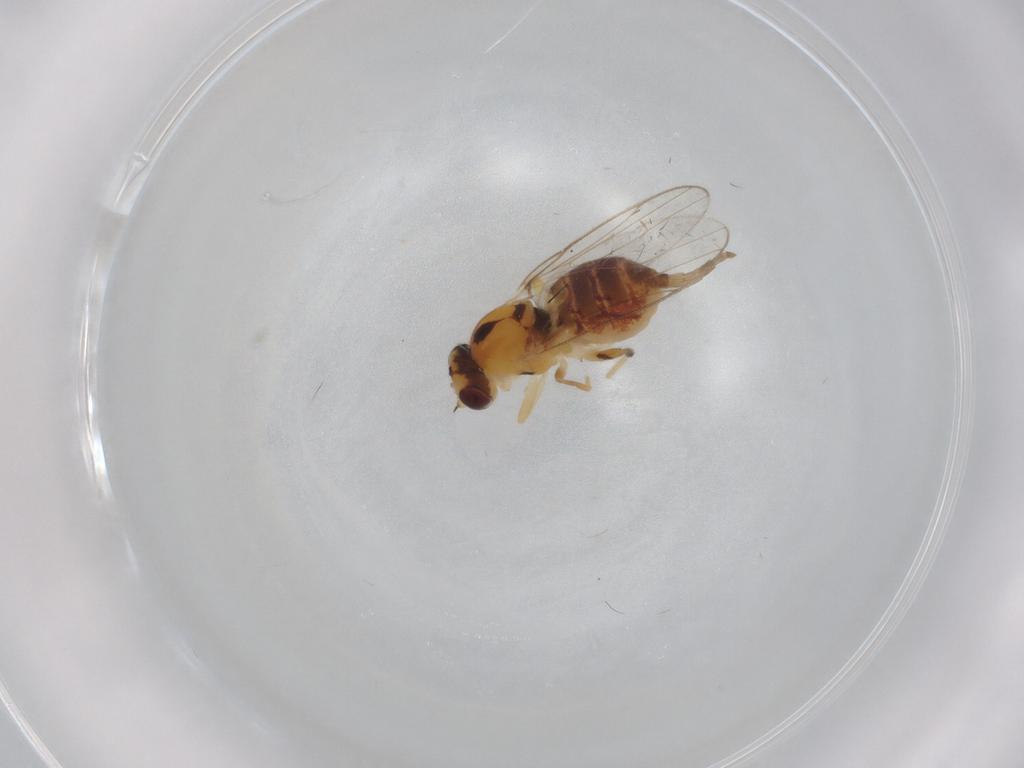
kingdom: Animalia
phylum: Arthropoda
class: Insecta
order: Diptera
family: Chloropidae
